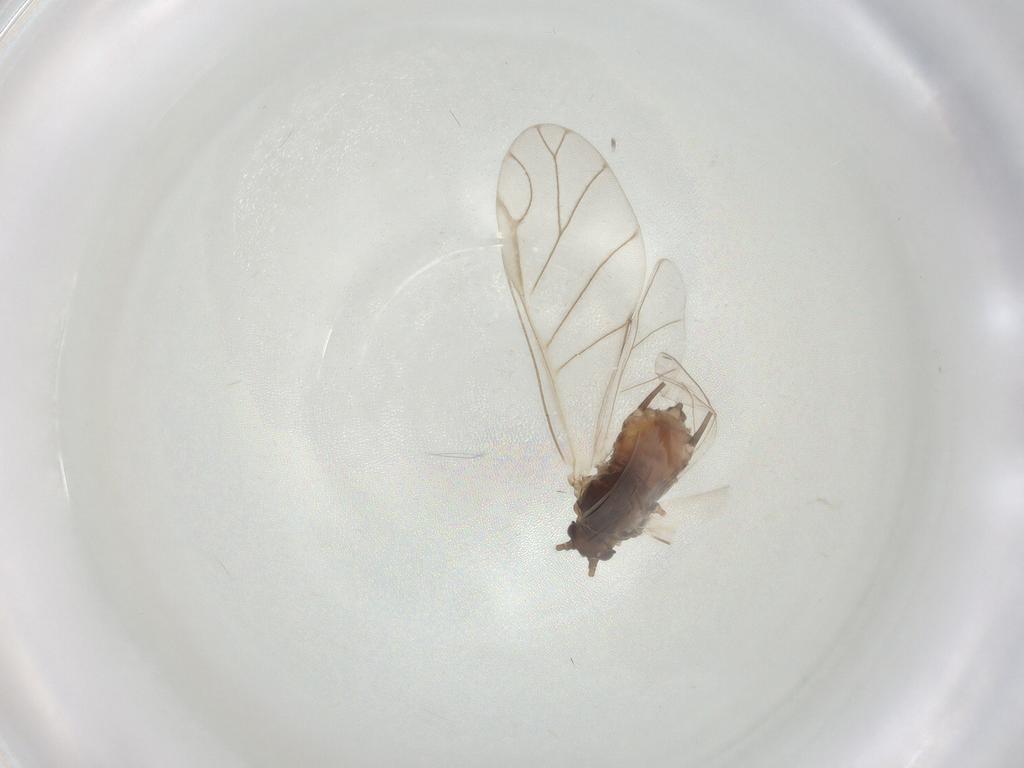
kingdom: Animalia
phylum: Arthropoda
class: Insecta
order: Hemiptera
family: Aphididae
